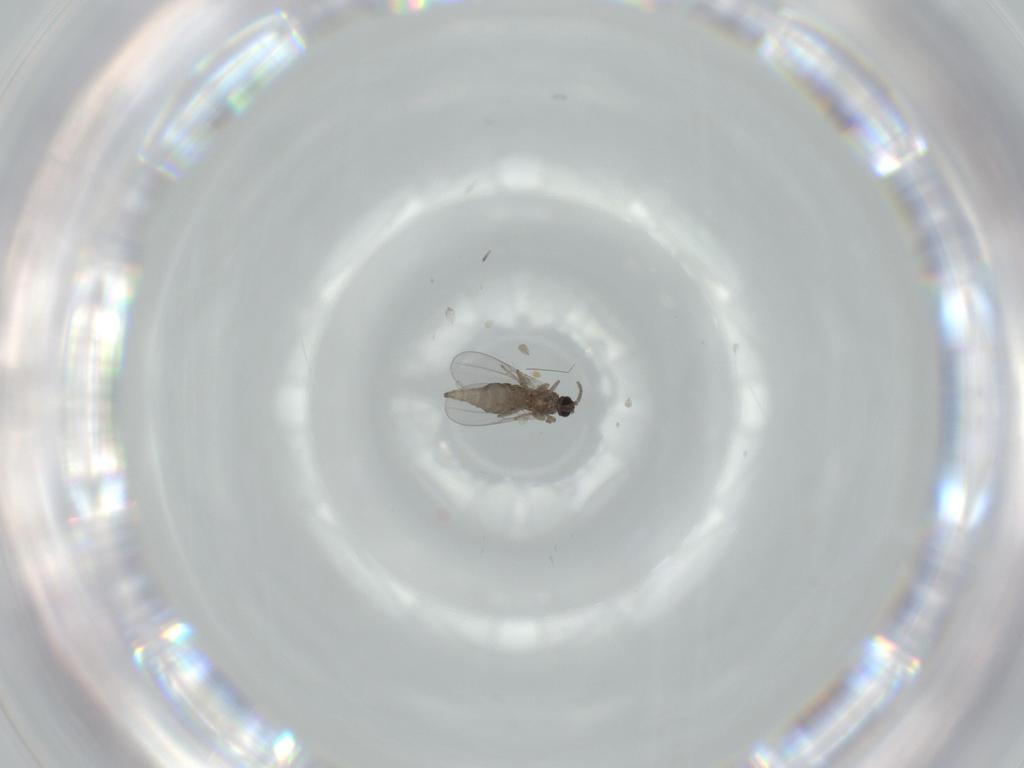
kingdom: Animalia
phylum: Arthropoda
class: Insecta
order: Diptera
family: Cecidomyiidae
